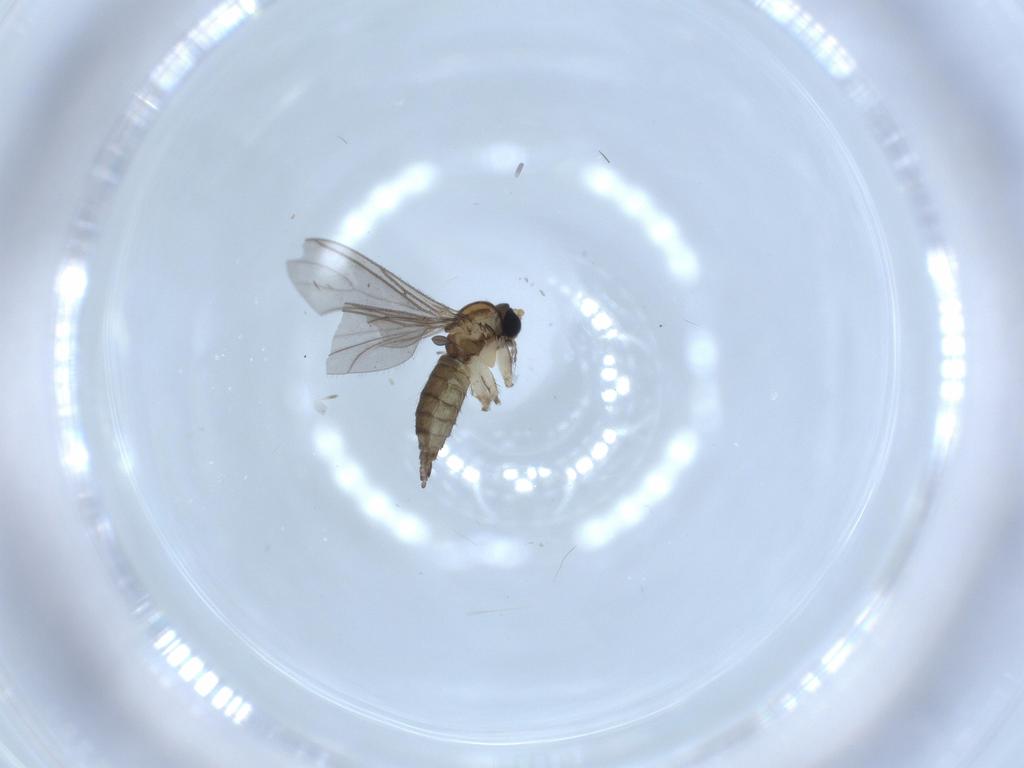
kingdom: Animalia
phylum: Arthropoda
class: Insecta
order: Diptera
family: Sciaridae
